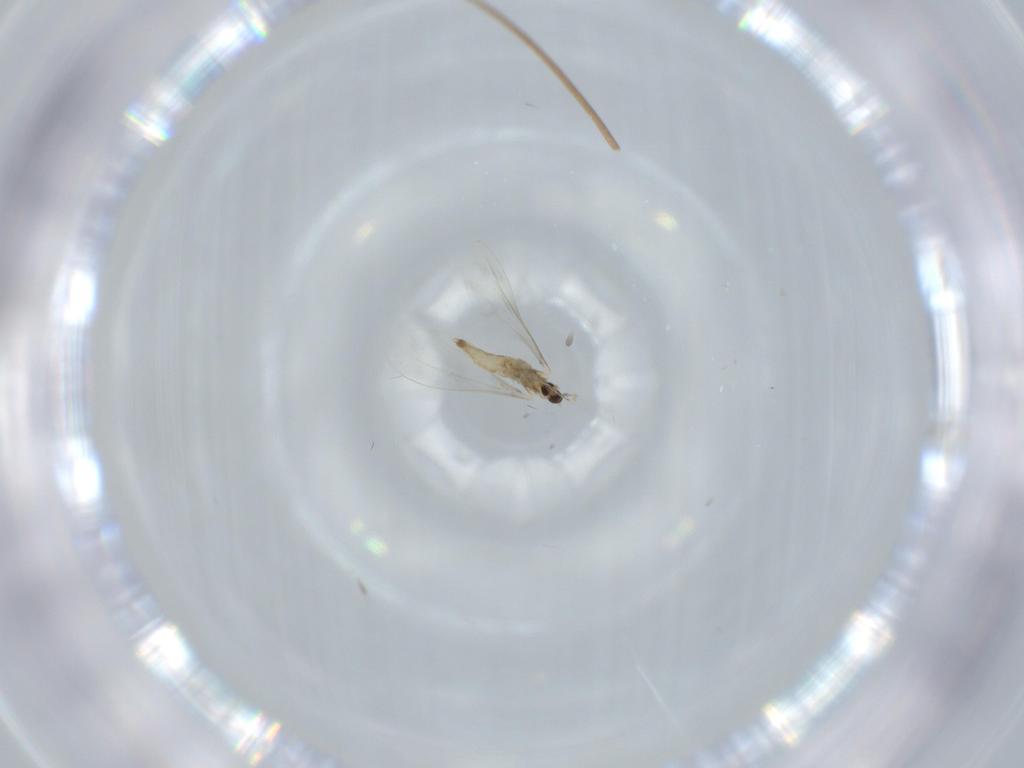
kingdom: Animalia
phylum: Arthropoda
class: Insecta
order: Diptera
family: Cecidomyiidae
